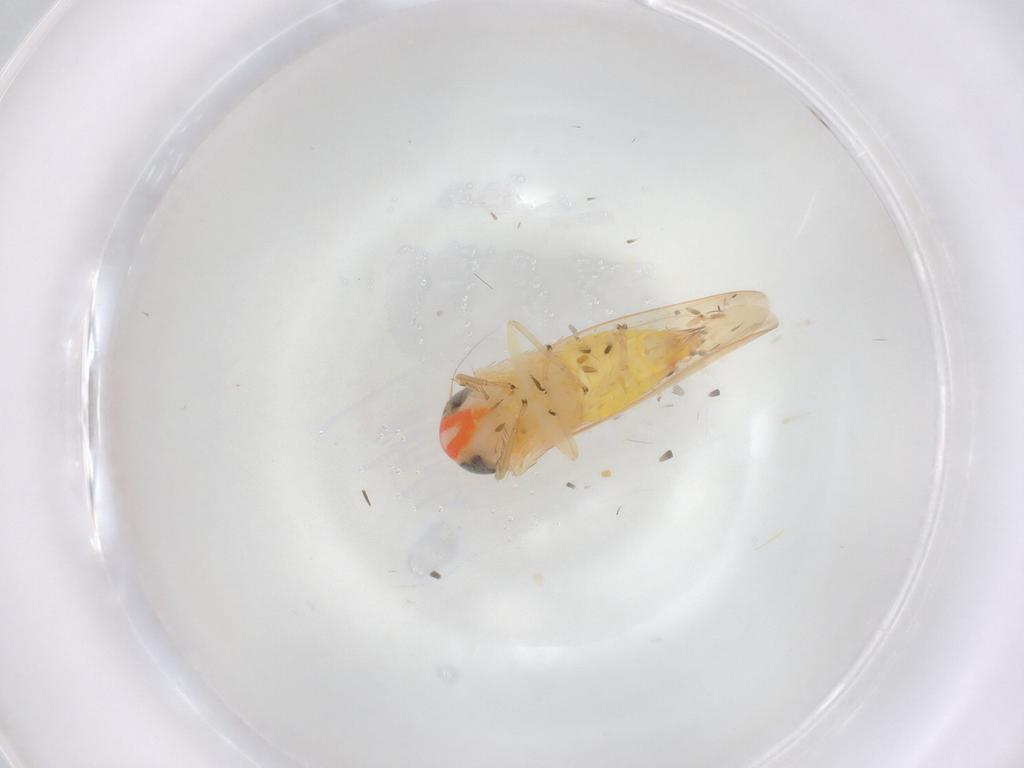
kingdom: Animalia
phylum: Arthropoda
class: Insecta
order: Hemiptera
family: Cicadellidae
